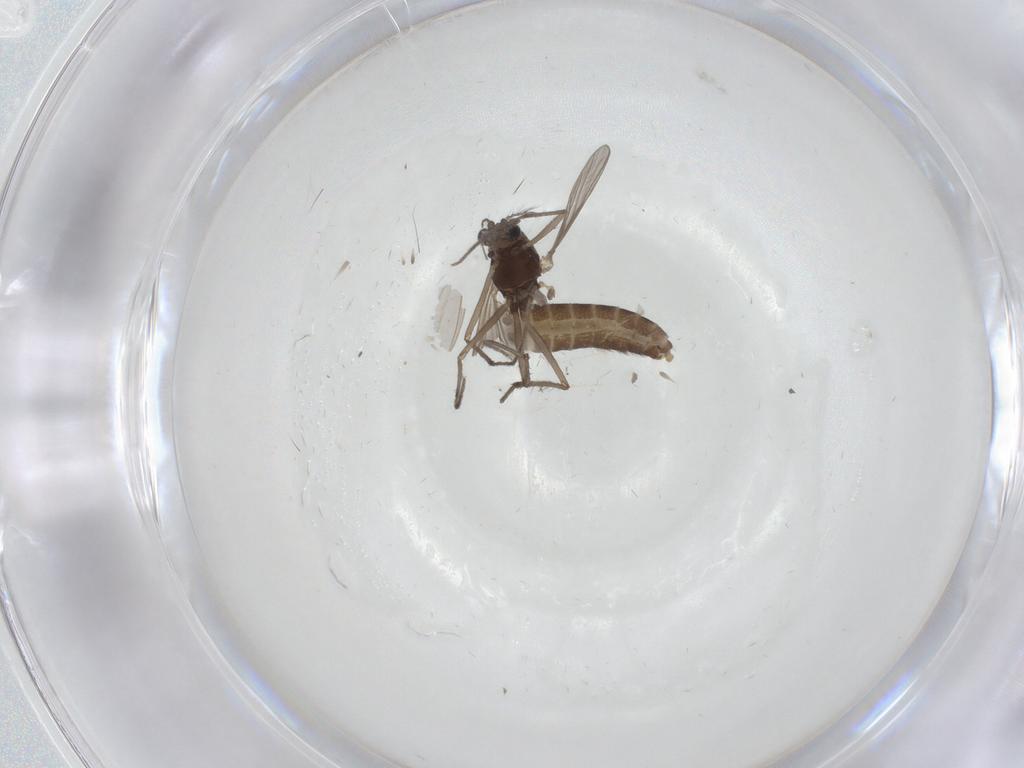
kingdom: Animalia
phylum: Arthropoda
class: Insecta
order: Diptera
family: Chironomidae
